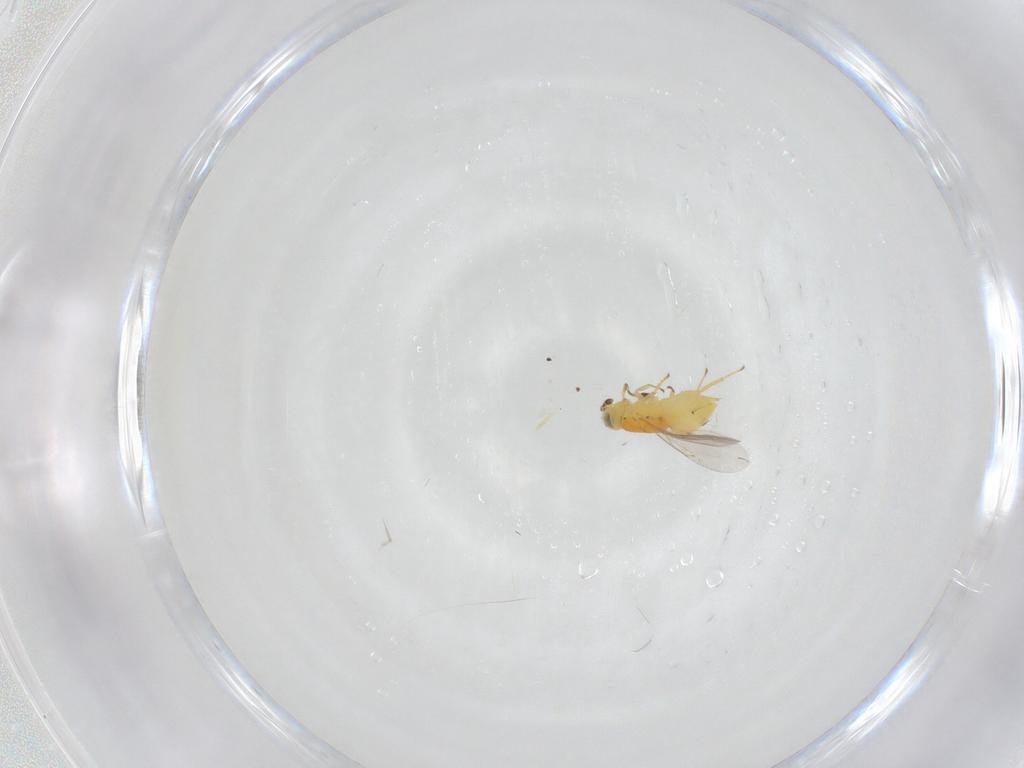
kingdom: Animalia
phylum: Arthropoda
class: Insecta
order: Hymenoptera
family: Encyrtidae
